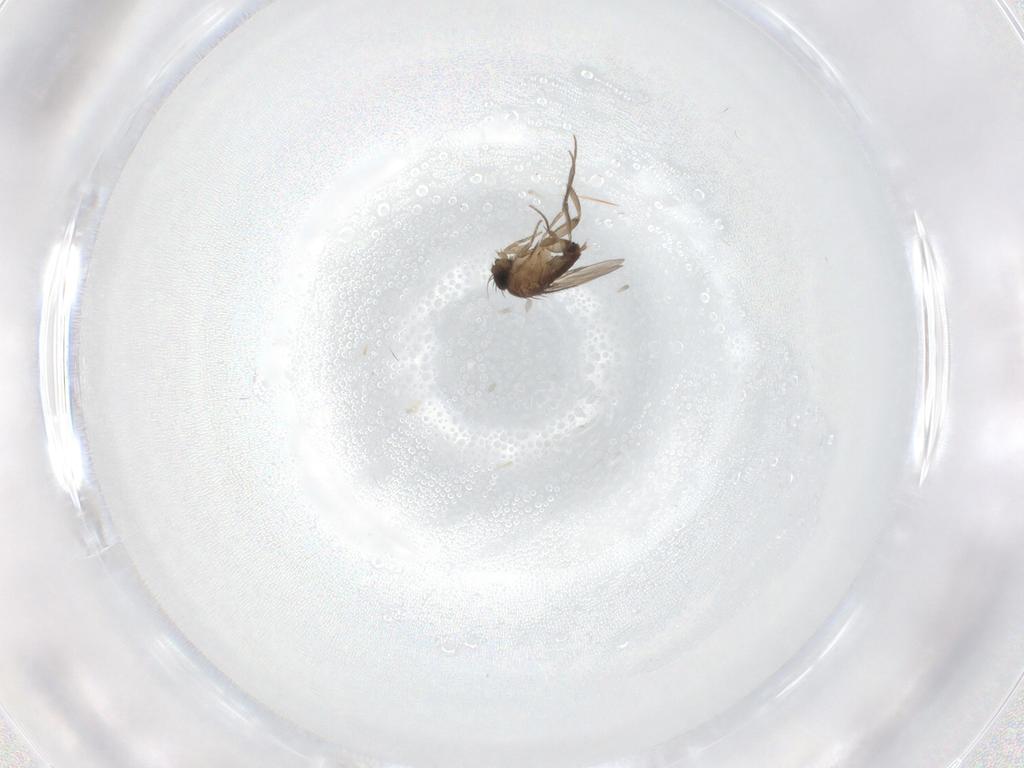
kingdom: Animalia
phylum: Arthropoda
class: Insecta
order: Diptera
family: Phoridae
